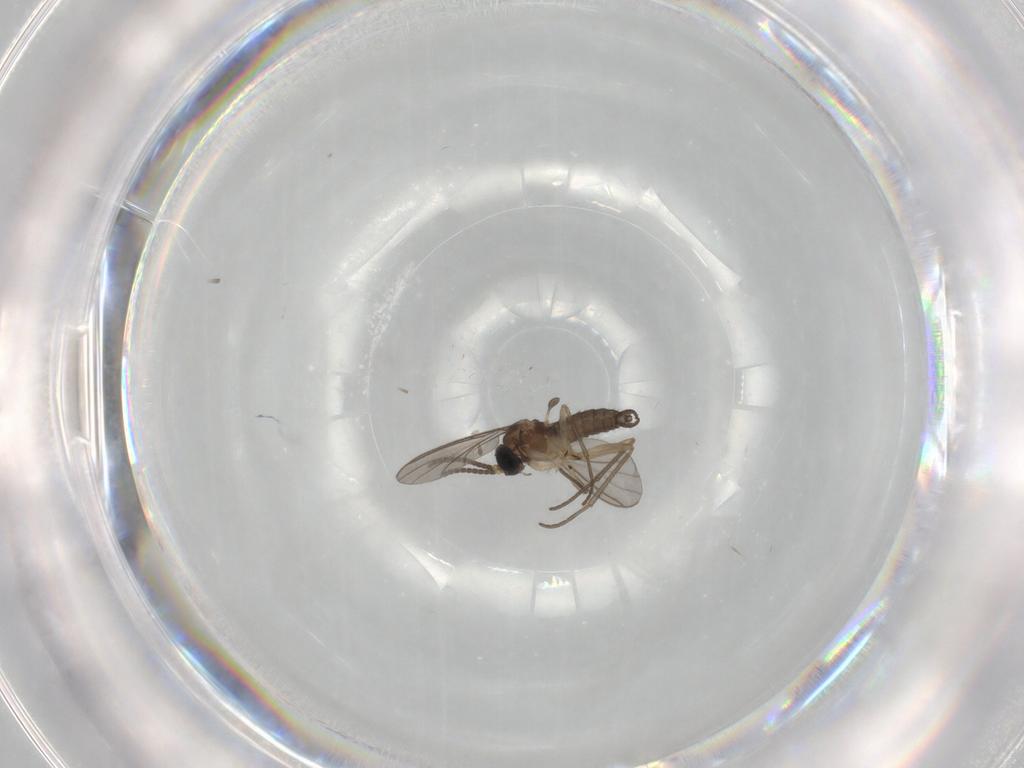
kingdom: Animalia
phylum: Arthropoda
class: Insecta
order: Diptera
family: Sciaridae
